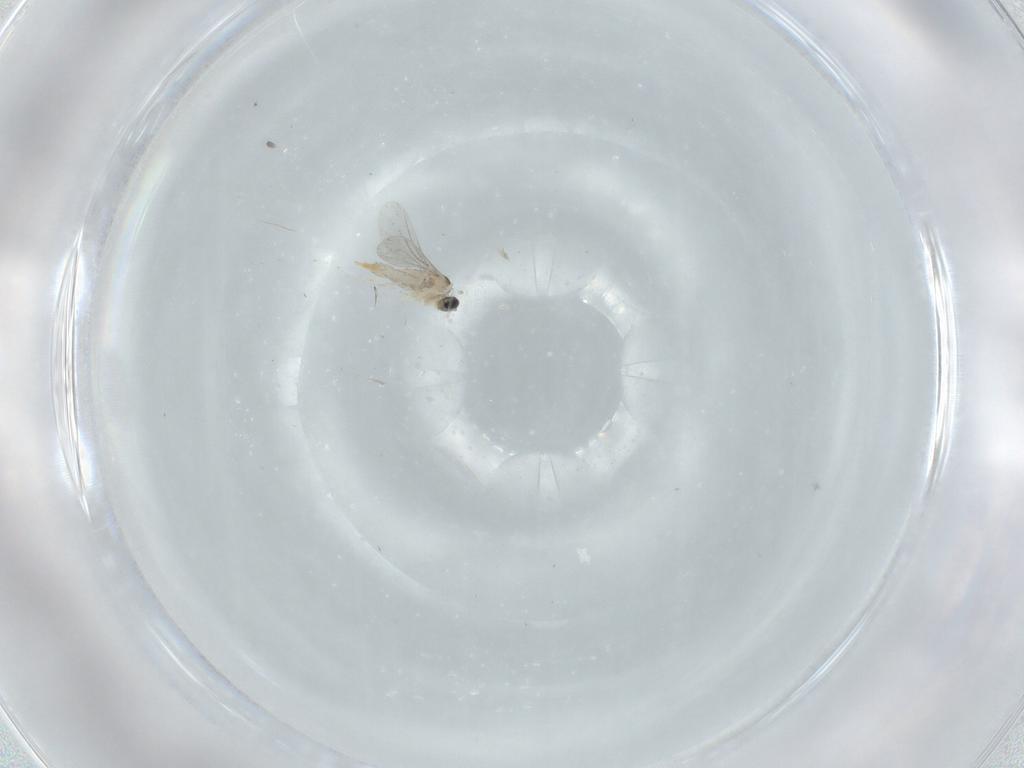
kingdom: Animalia
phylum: Arthropoda
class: Insecta
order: Diptera
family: Cecidomyiidae
